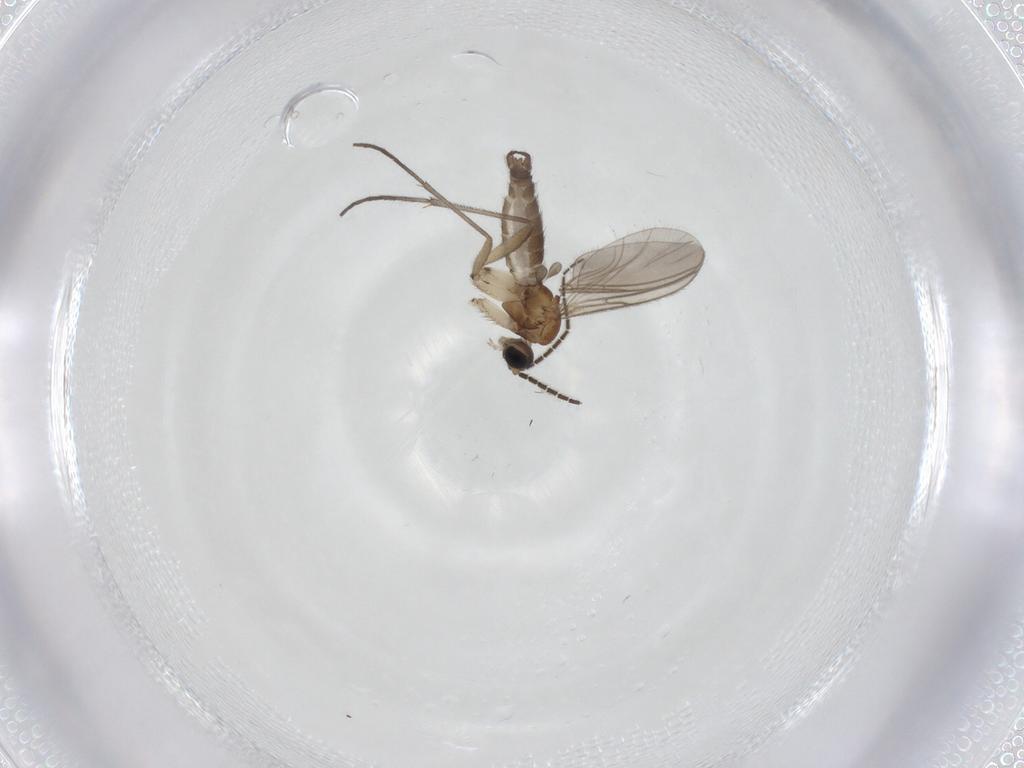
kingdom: Animalia
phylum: Arthropoda
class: Insecta
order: Diptera
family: Sciaridae
